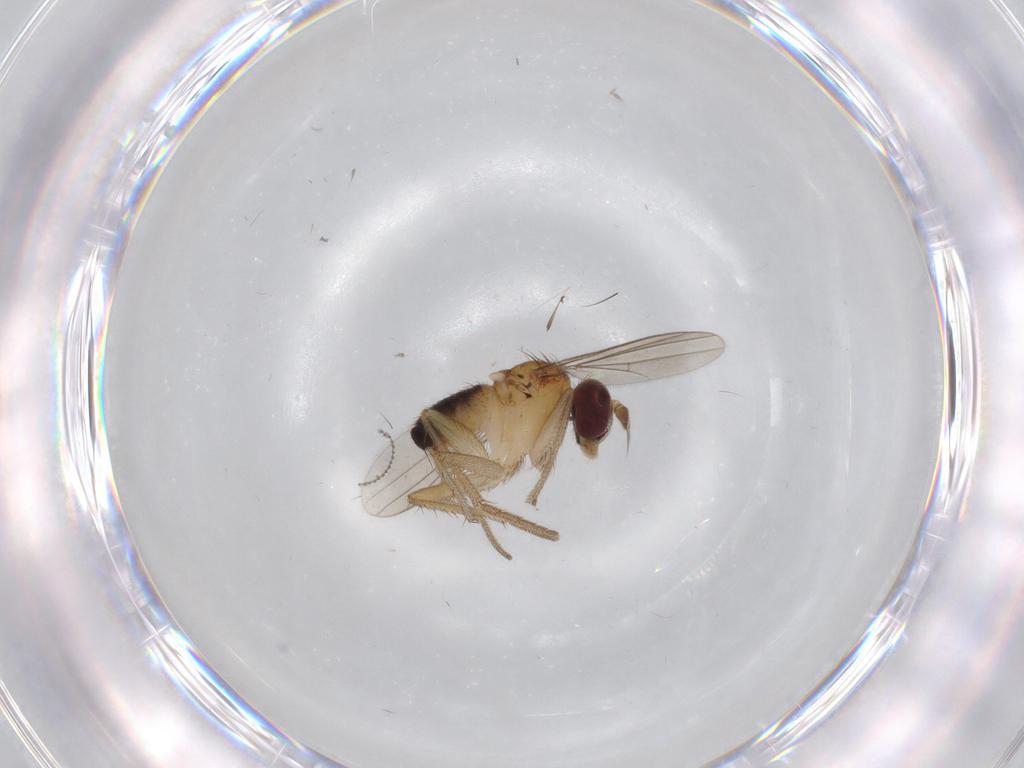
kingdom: Animalia
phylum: Arthropoda
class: Insecta
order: Diptera
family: Dolichopodidae
